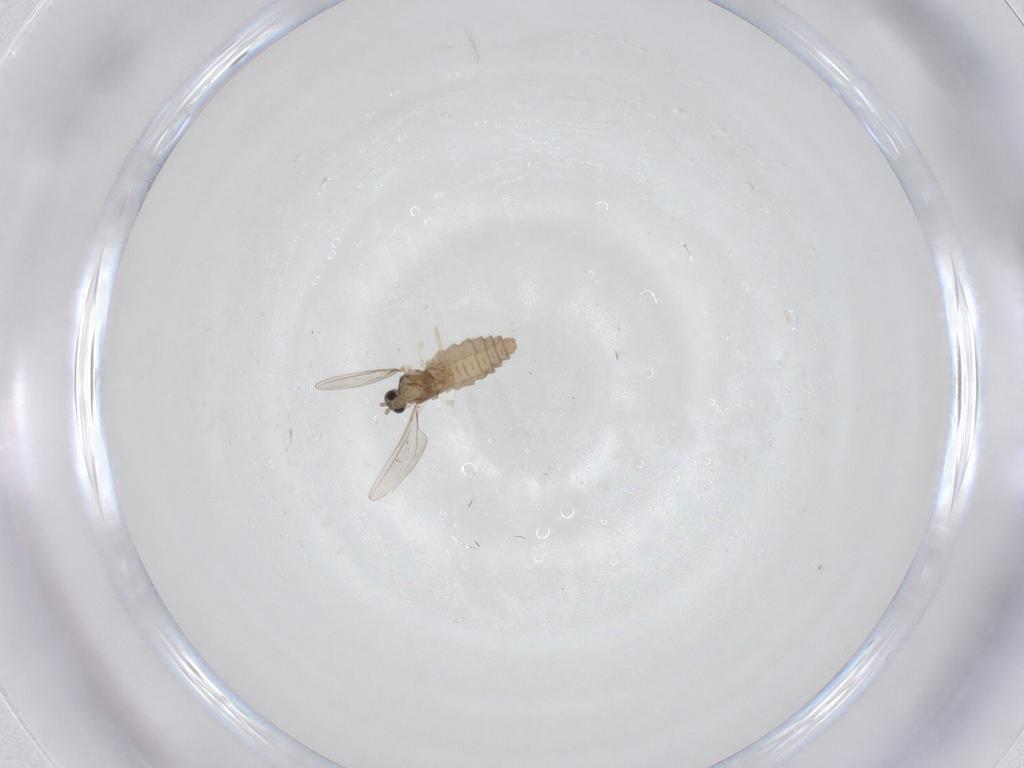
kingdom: Animalia
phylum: Arthropoda
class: Insecta
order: Diptera
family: Cecidomyiidae
